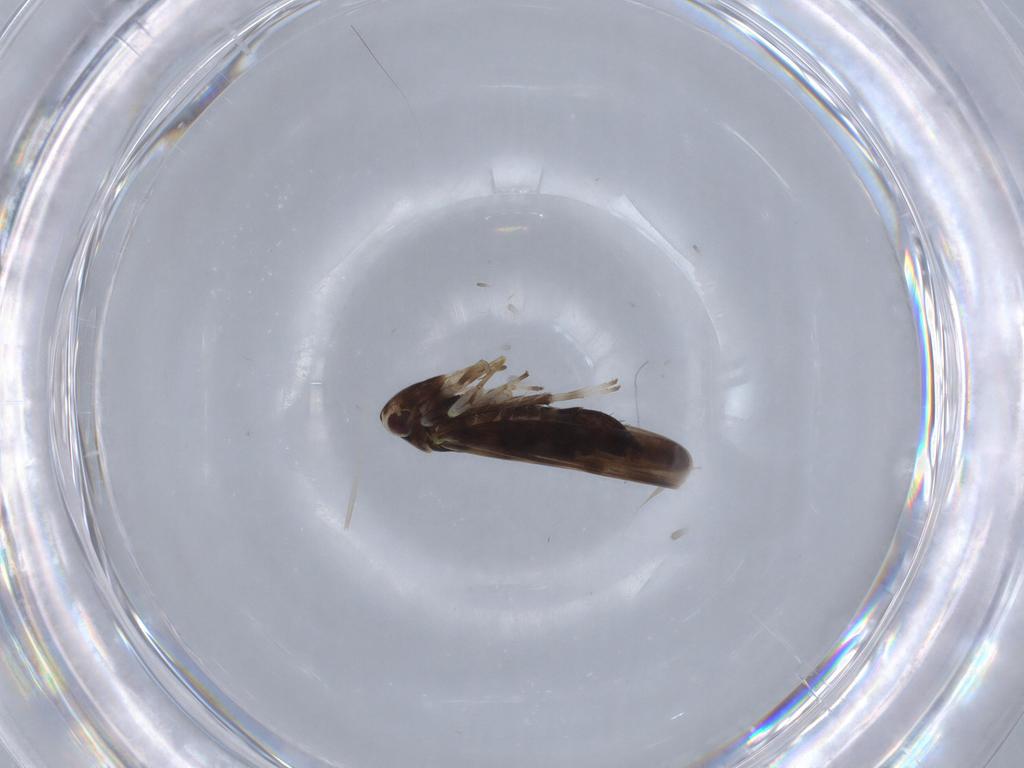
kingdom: Animalia
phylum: Arthropoda
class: Insecta
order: Hemiptera
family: Cicadellidae
